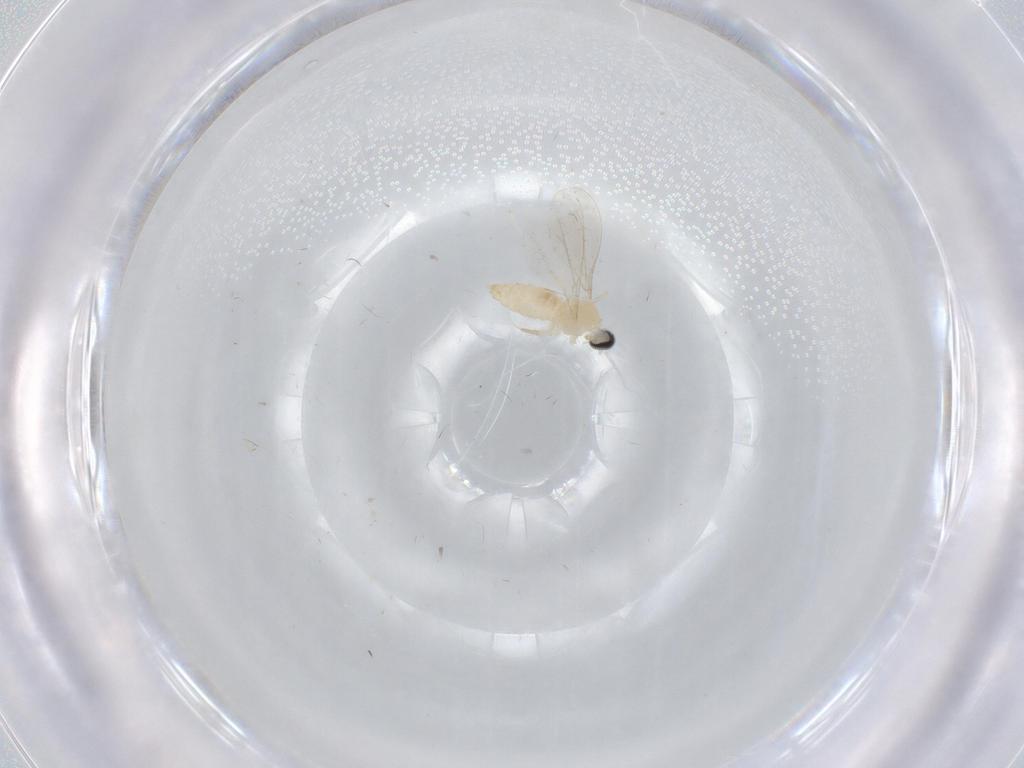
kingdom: Animalia
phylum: Arthropoda
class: Insecta
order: Diptera
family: Cecidomyiidae
